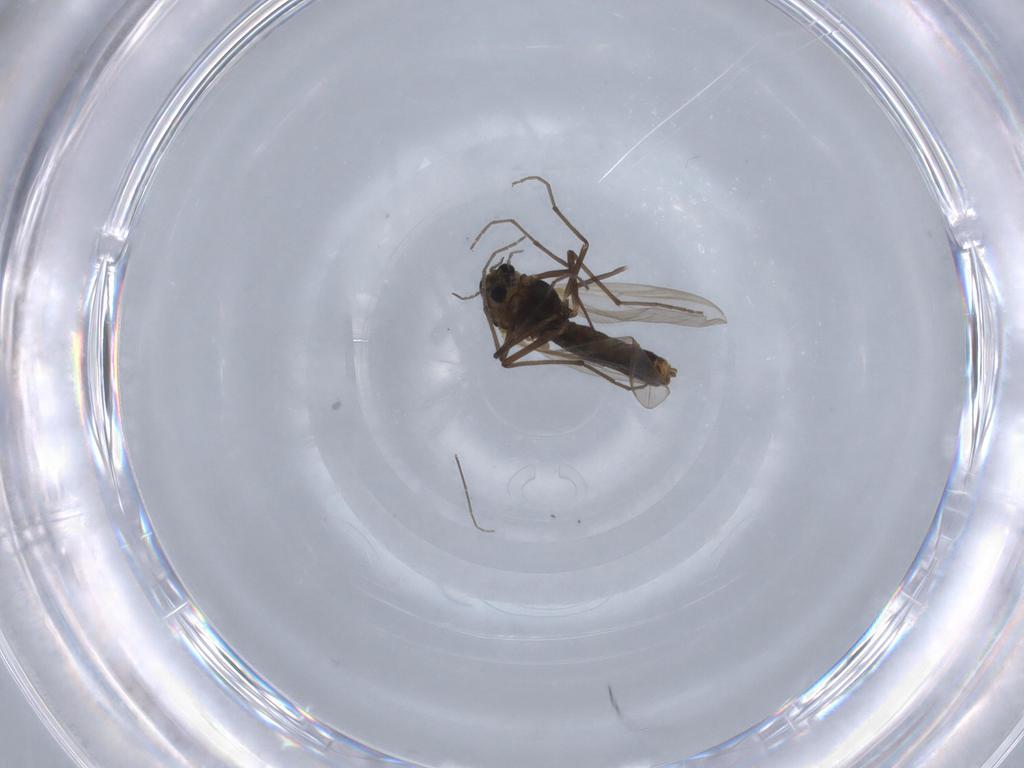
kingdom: Animalia
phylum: Arthropoda
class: Insecta
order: Diptera
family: Chironomidae
